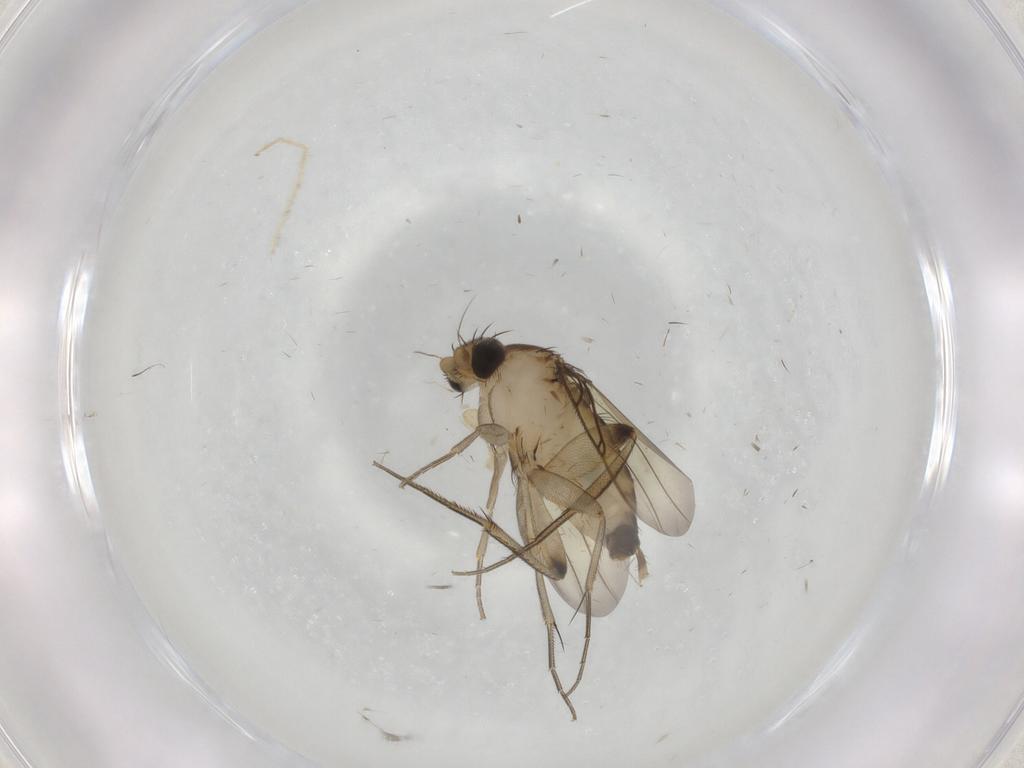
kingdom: Animalia
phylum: Arthropoda
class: Insecta
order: Diptera
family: Phoridae
